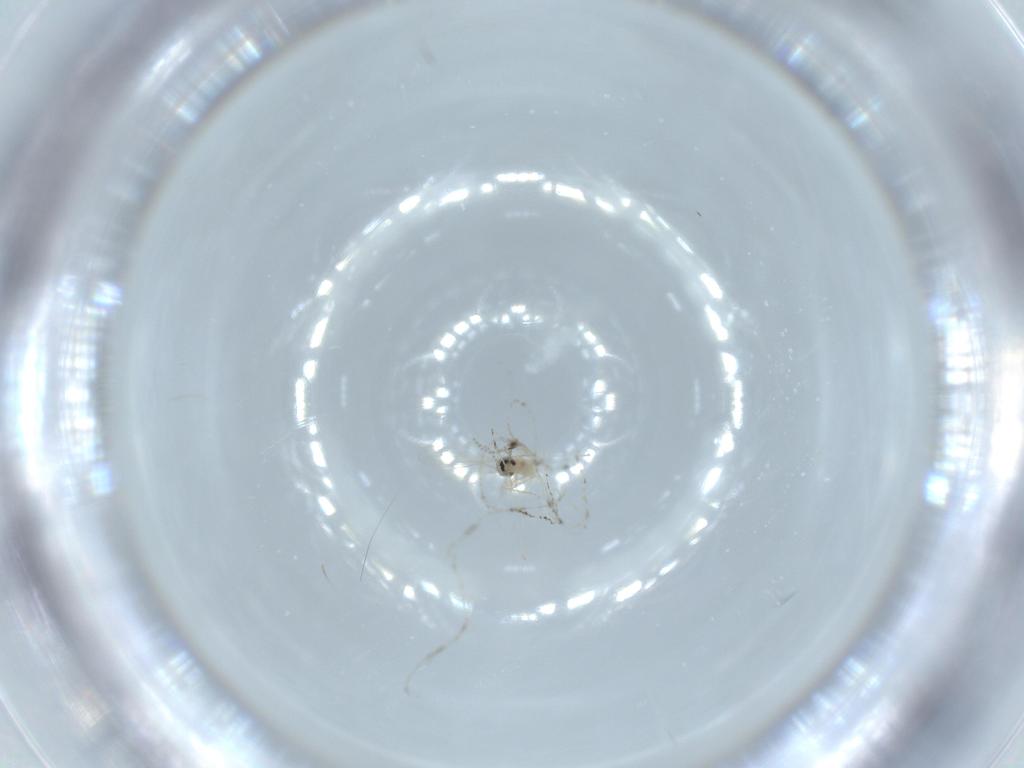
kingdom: Animalia
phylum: Arthropoda
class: Insecta
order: Diptera
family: Cecidomyiidae
